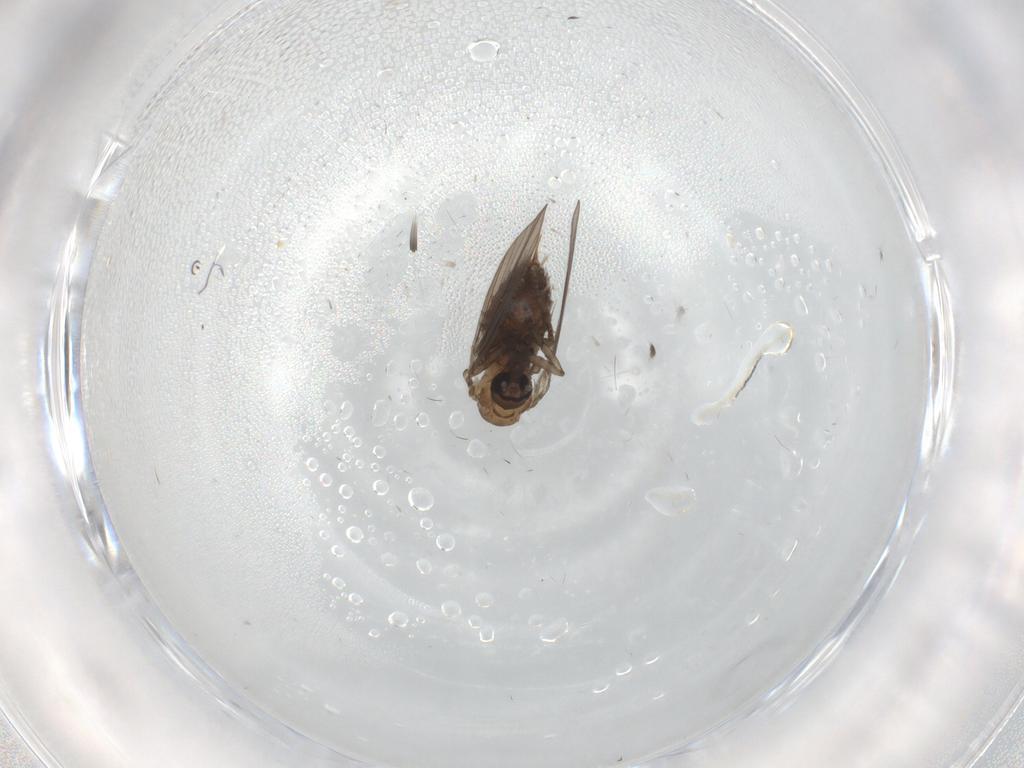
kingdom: Animalia
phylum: Arthropoda
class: Insecta
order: Diptera
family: Psychodidae
